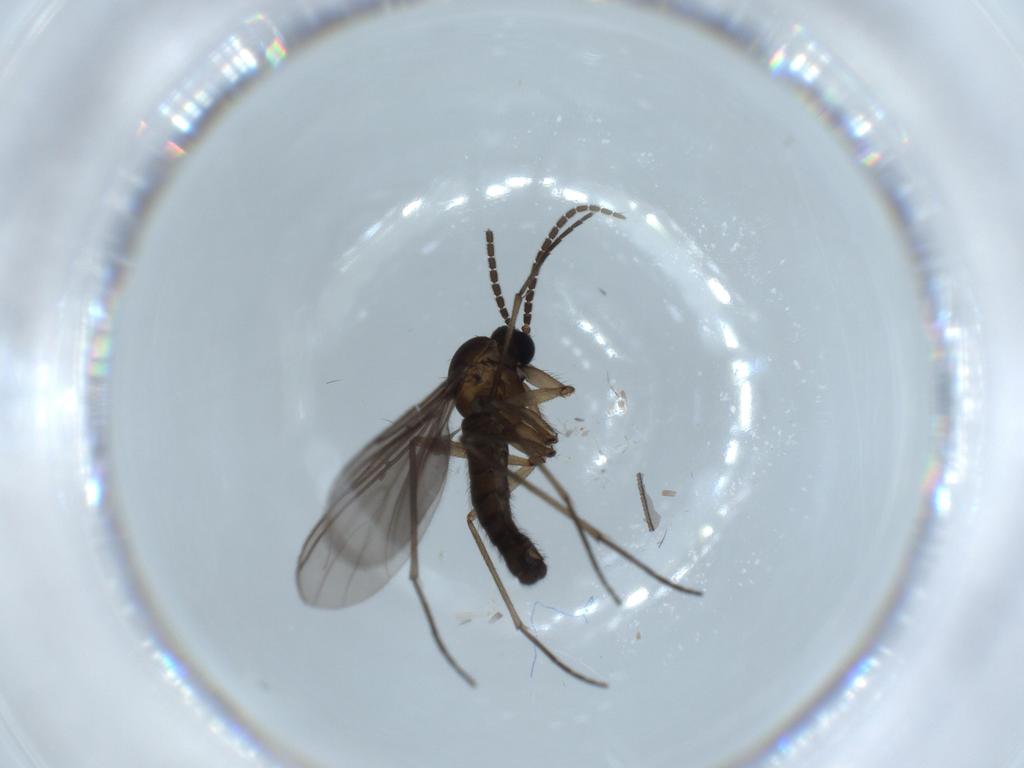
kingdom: Animalia
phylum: Arthropoda
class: Insecta
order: Diptera
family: Sciaridae
